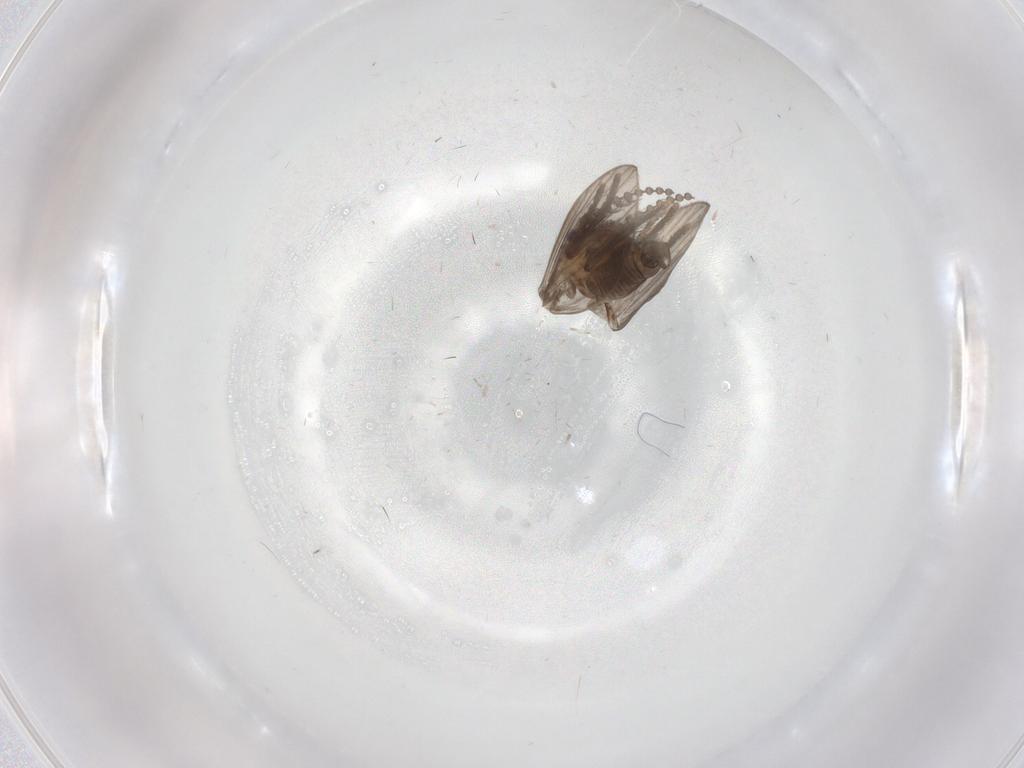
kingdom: Animalia
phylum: Arthropoda
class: Insecta
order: Diptera
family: Psychodidae
